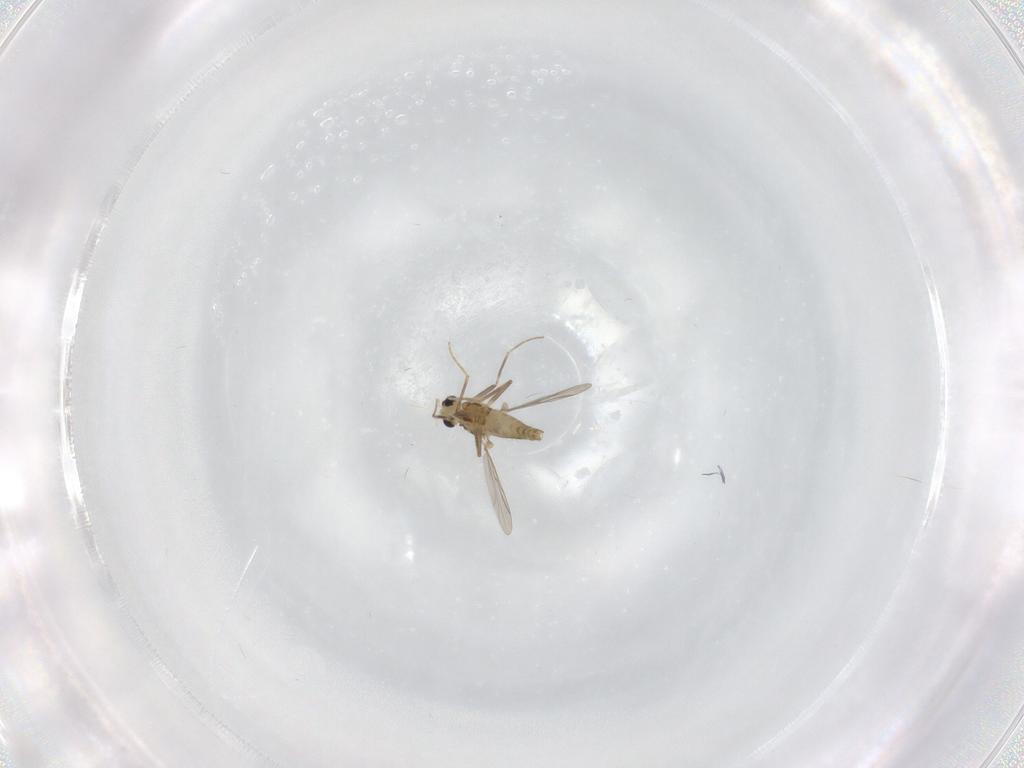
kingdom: Animalia
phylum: Arthropoda
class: Insecta
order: Diptera
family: Chironomidae
